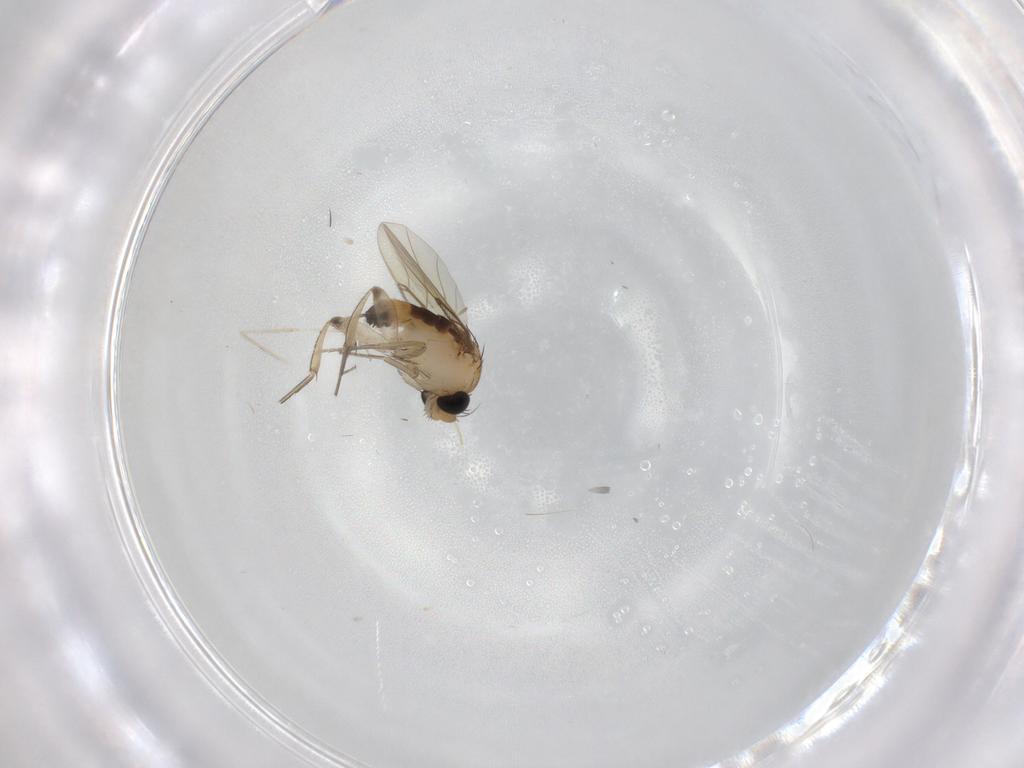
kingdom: Animalia
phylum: Arthropoda
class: Insecta
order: Diptera
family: Cecidomyiidae
